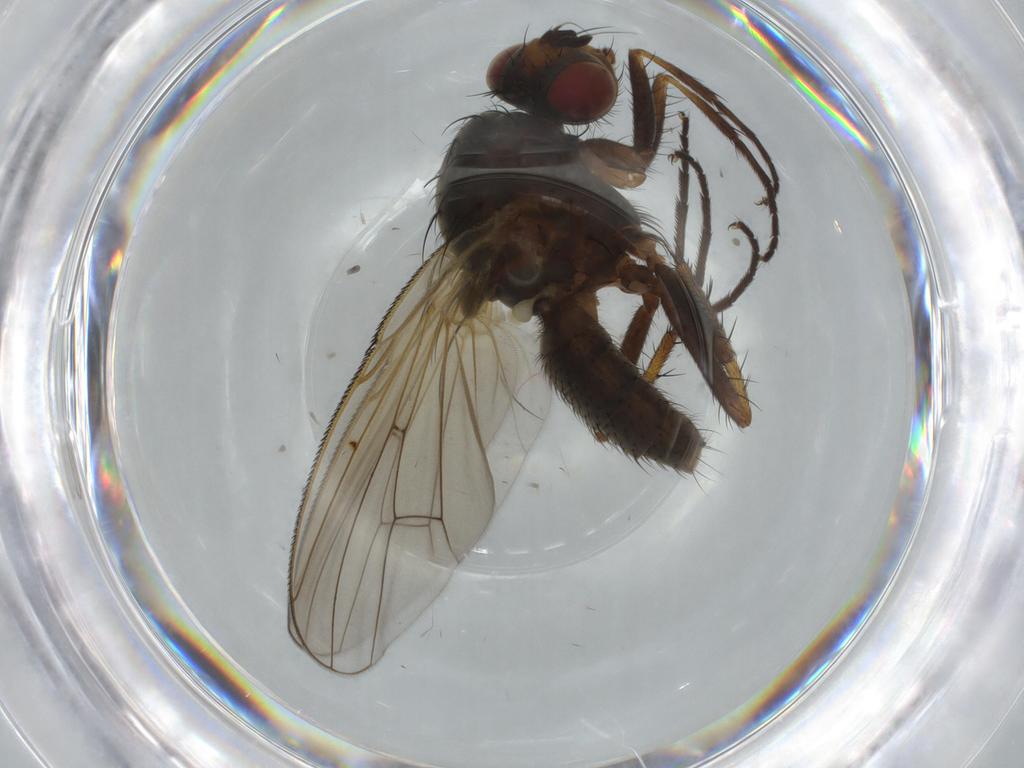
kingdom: Animalia
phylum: Arthropoda
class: Insecta
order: Diptera
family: Anthomyiidae
